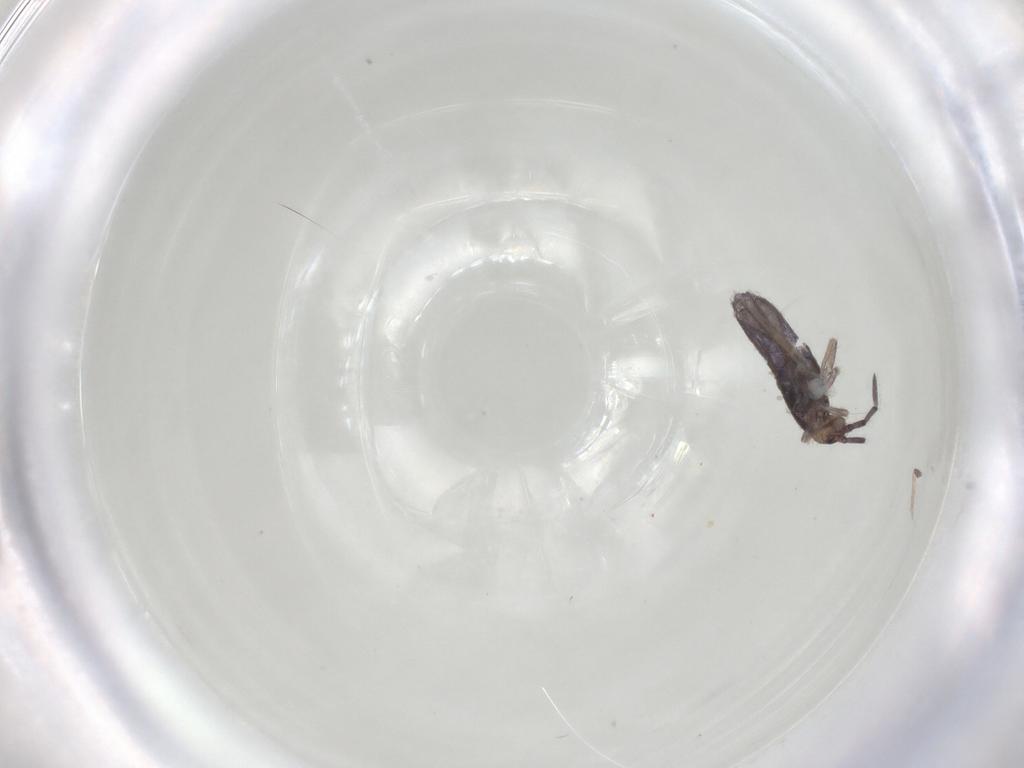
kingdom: Animalia
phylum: Arthropoda
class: Collembola
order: Entomobryomorpha
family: Entomobryidae
